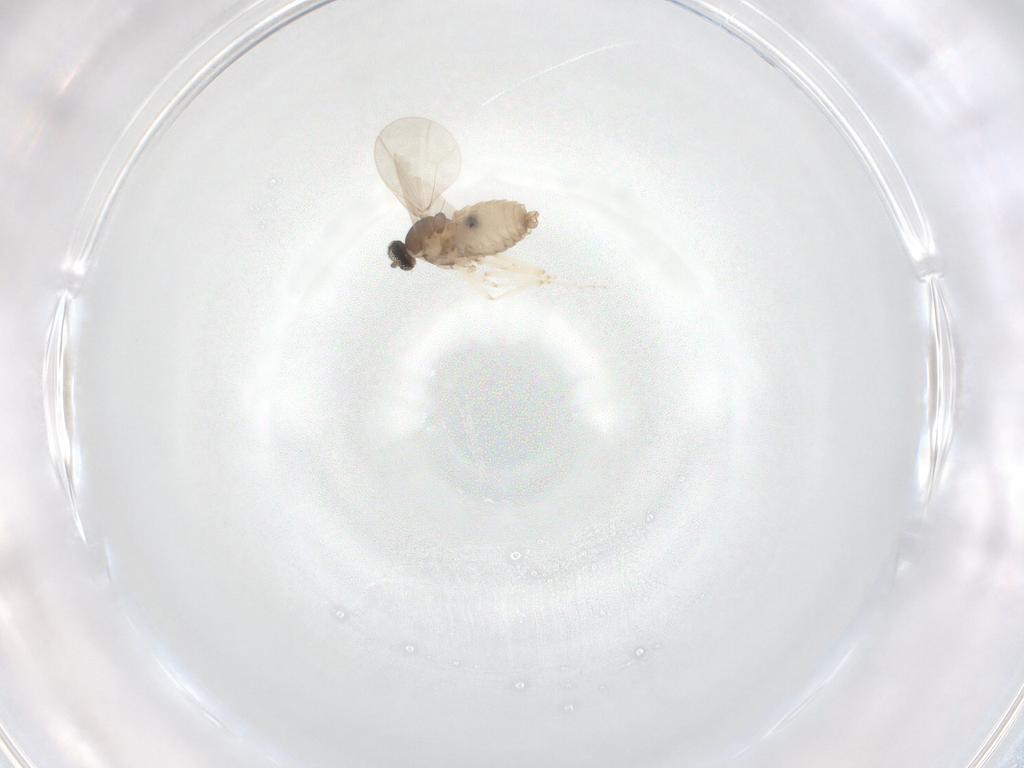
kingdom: Animalia
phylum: Arthropoda
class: Insecta
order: Diptera
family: Cecidomyiidae
